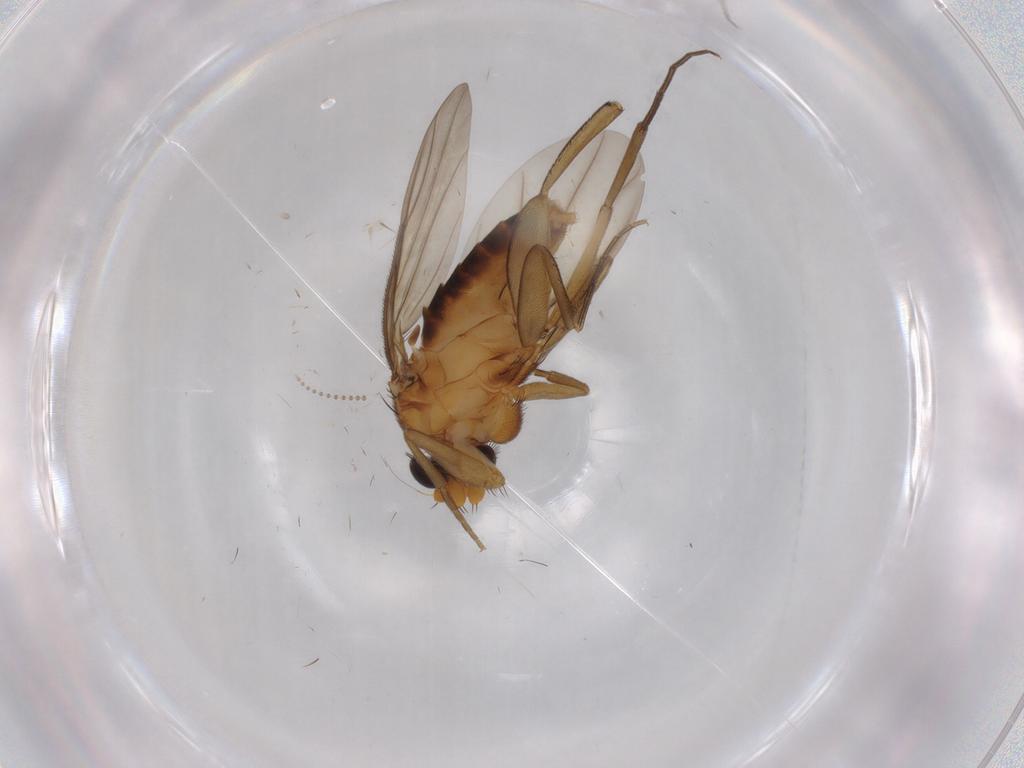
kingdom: Animalia
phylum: Arthropoda
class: Insecta
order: Diptera
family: Psychodidae
